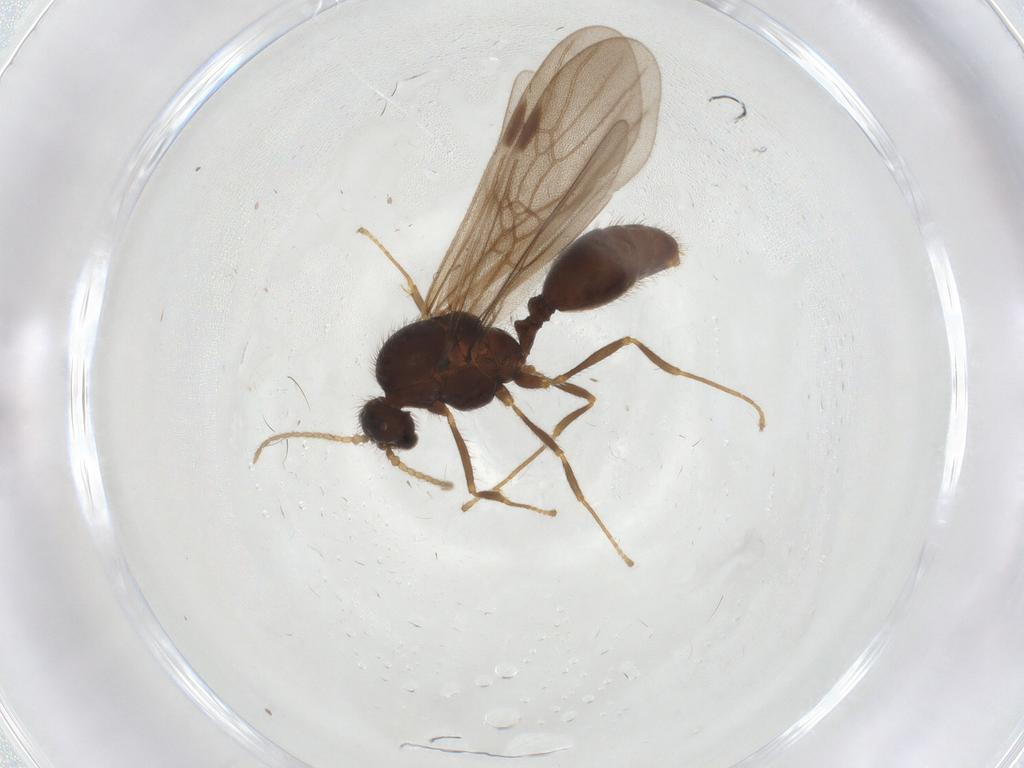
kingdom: Animalia
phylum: Arthropoda
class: Insecta
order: Hymenoptera
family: Formicidae
